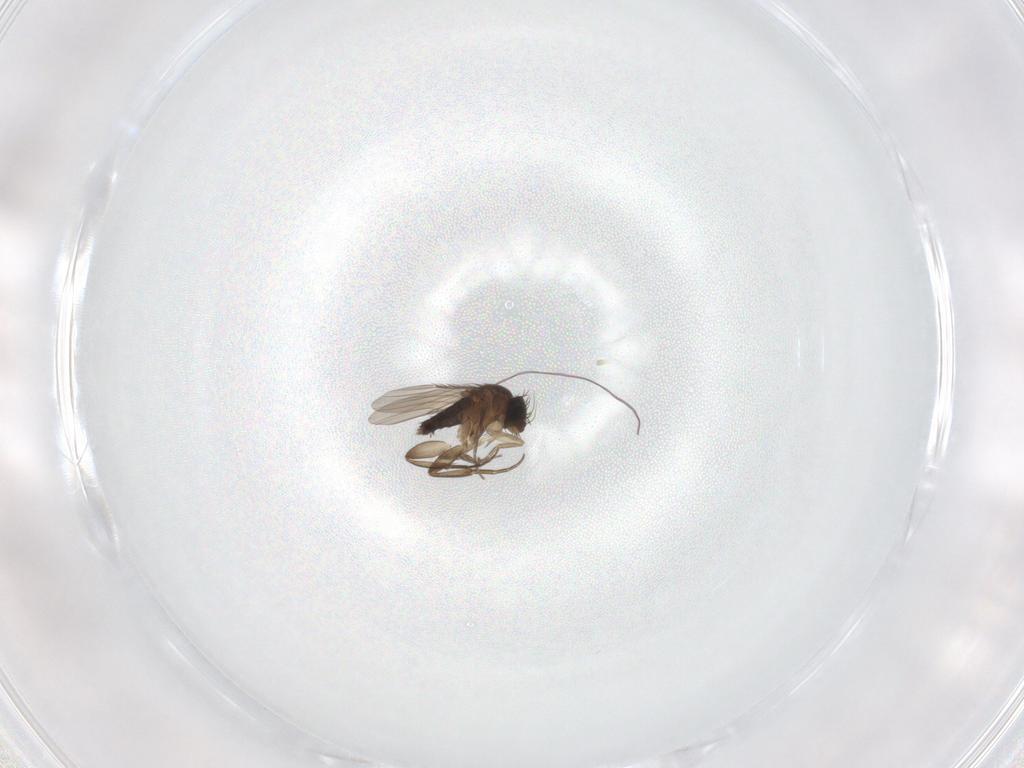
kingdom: Animalia
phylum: Arthropoda
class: Insecta
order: Diptera
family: Phoridae
